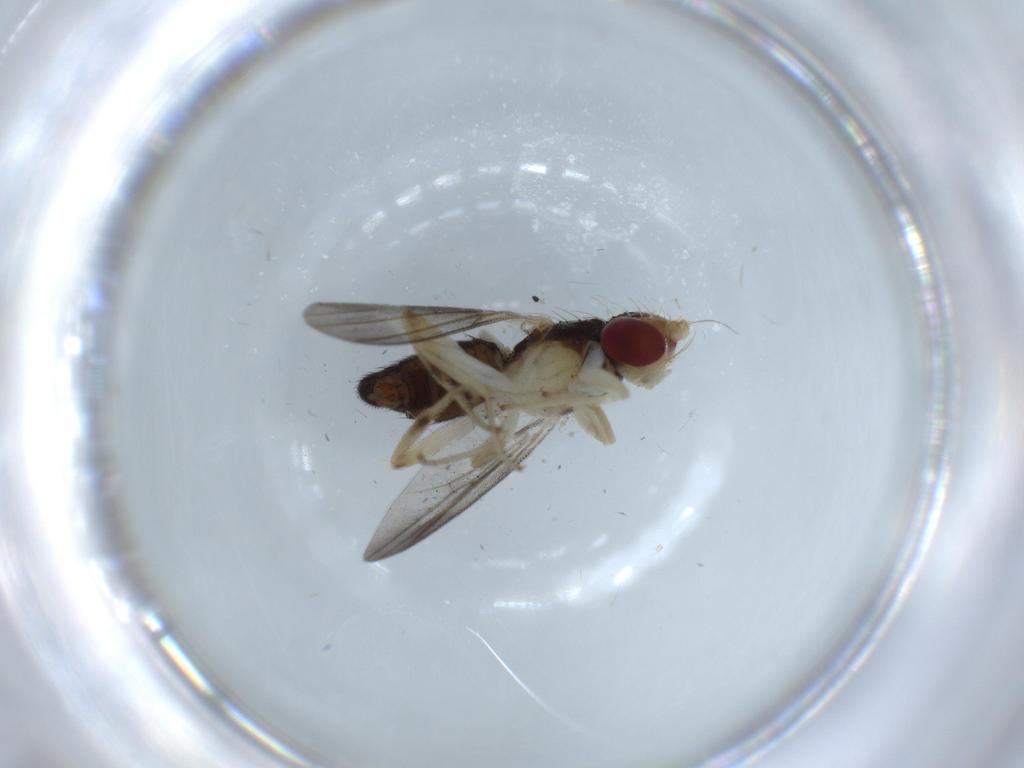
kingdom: Animalia
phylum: Arthropoda
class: Insecta
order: Diptera
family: Clusiidae
